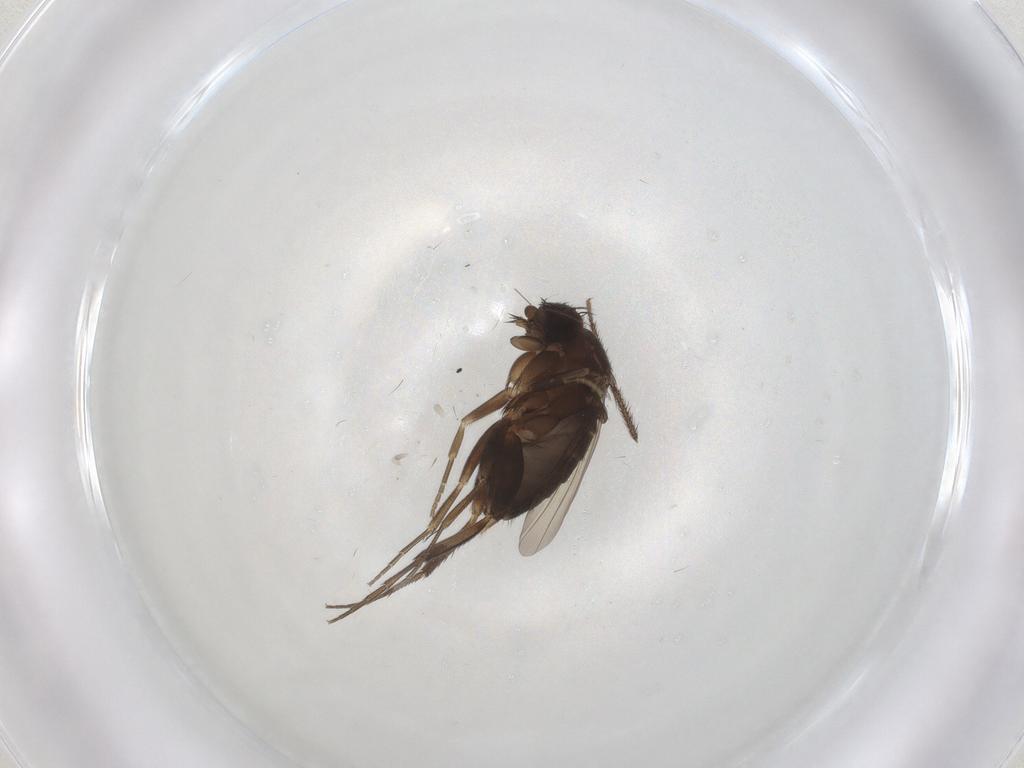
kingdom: Animalia
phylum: Arthropoda
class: Insecta
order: Diptera
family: Phoridae
